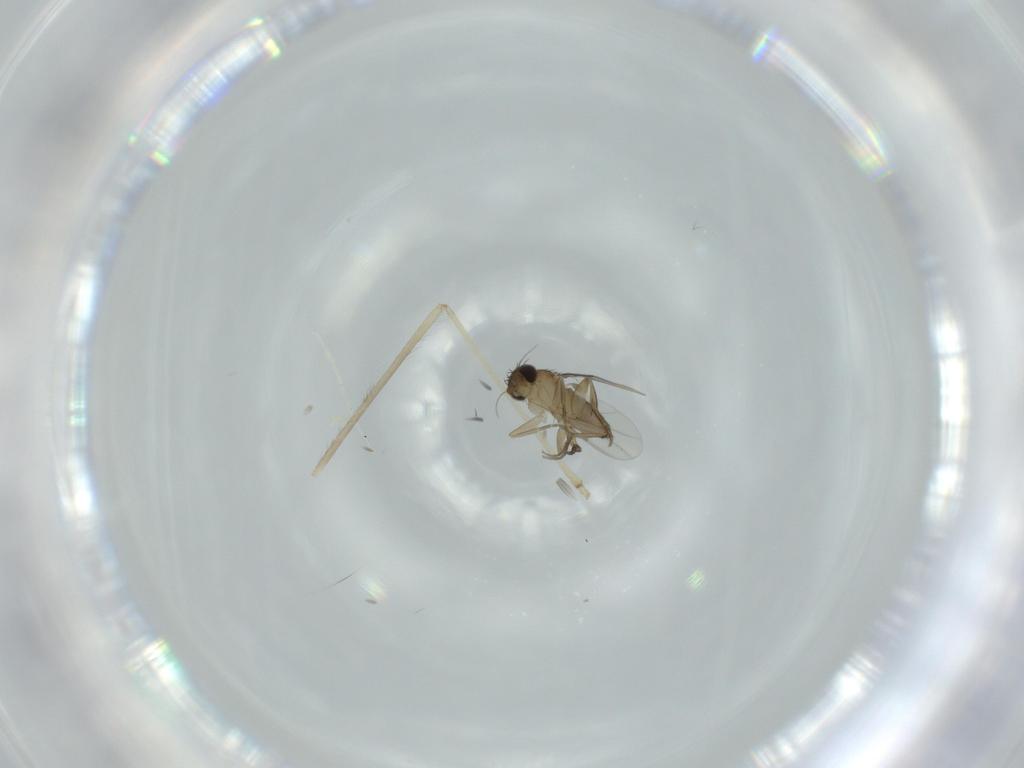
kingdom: Animalia
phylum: Arthropoda
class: Insecta
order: Diptera
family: Phoridae
